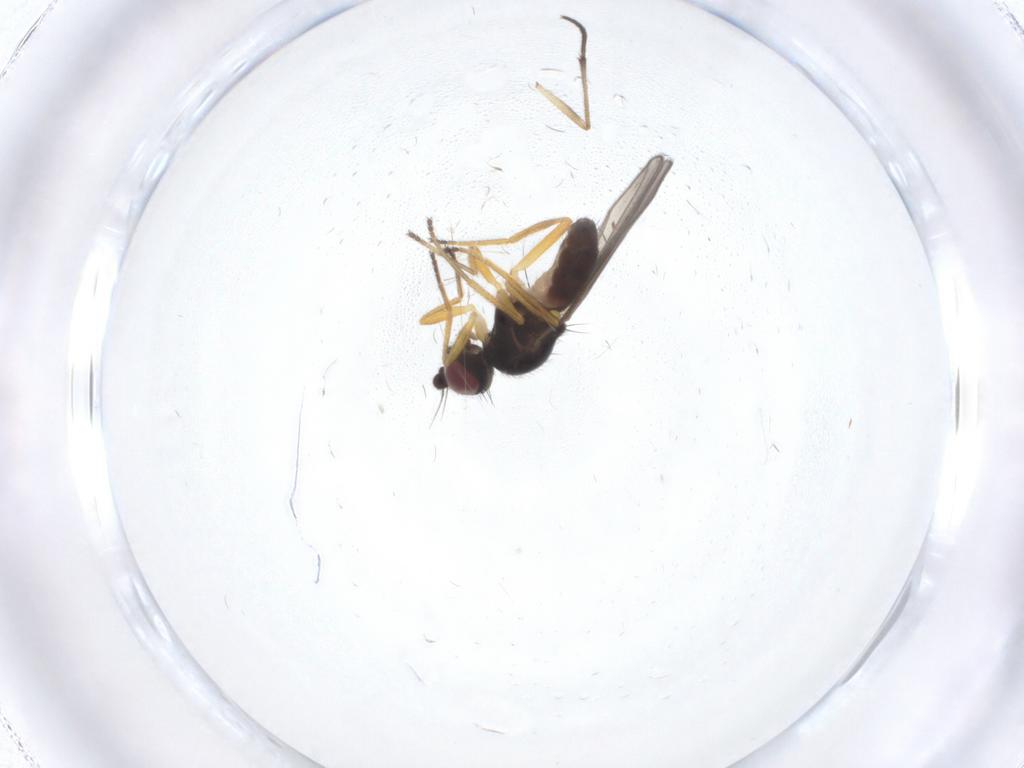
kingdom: Animalia
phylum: Arthropoda
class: Insecta
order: Diptera
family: Chloropidae
